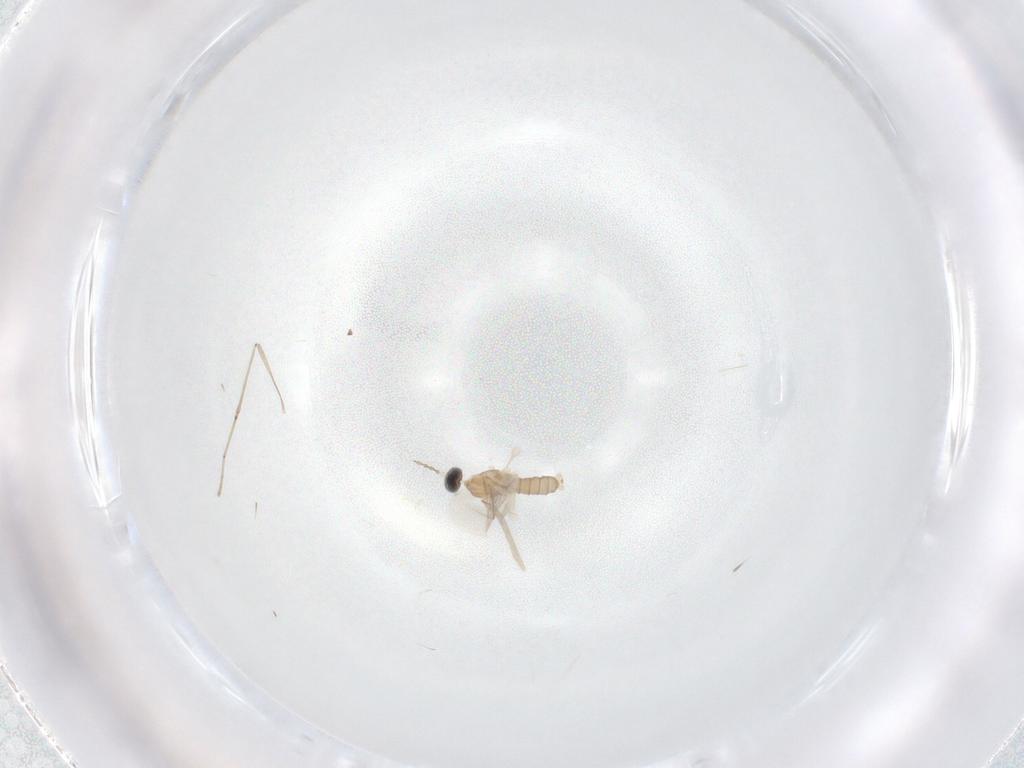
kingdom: Animalia
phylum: Arthropoda
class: Insecta
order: Diptera
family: Cecidomyiidae
